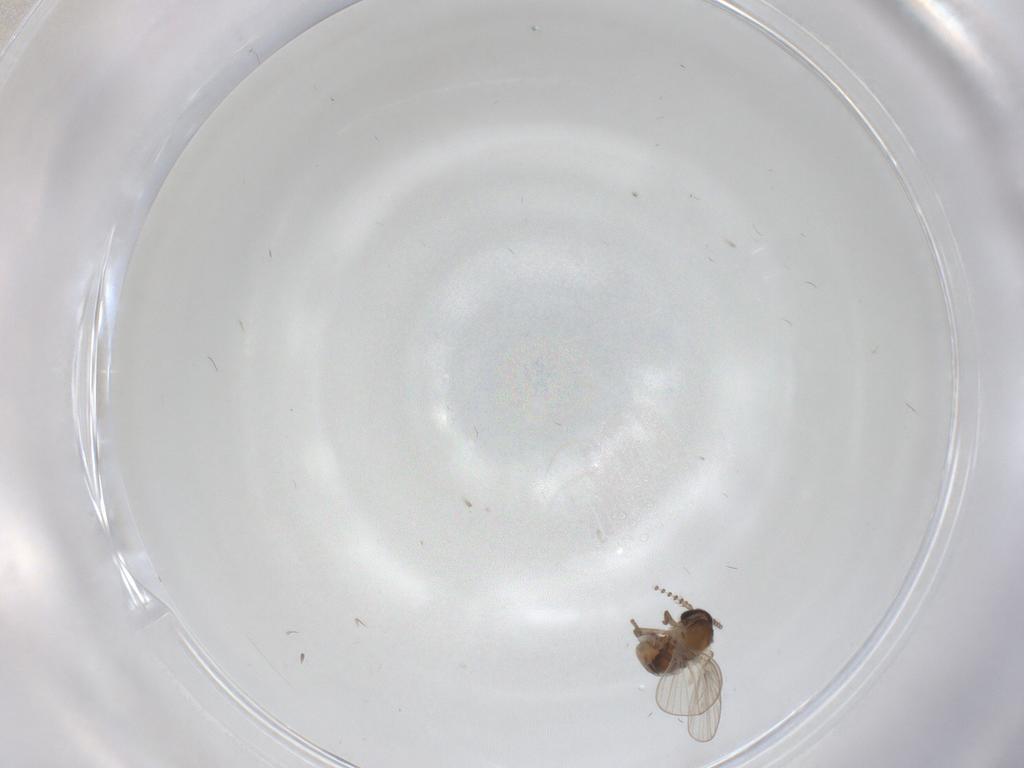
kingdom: Animalia
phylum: Arthropoda
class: Insecta
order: Diptera
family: Psychodidae
